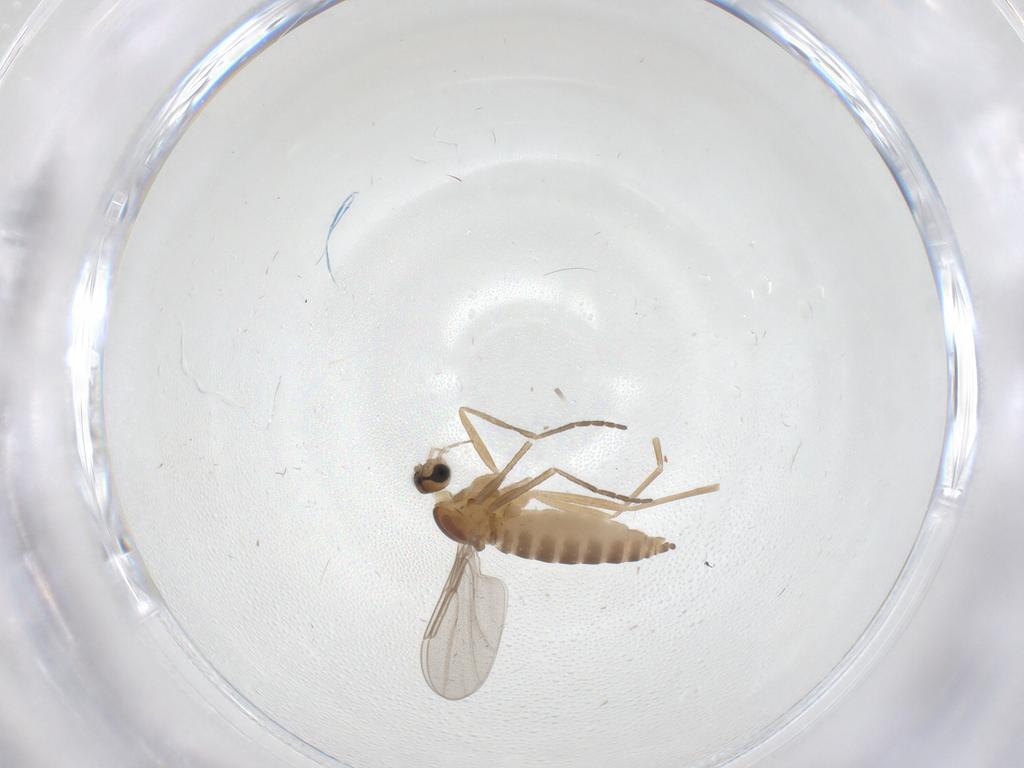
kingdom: Animalia
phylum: Arthropoda
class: Insecta
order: Diptera
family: Cecidomyiidae
